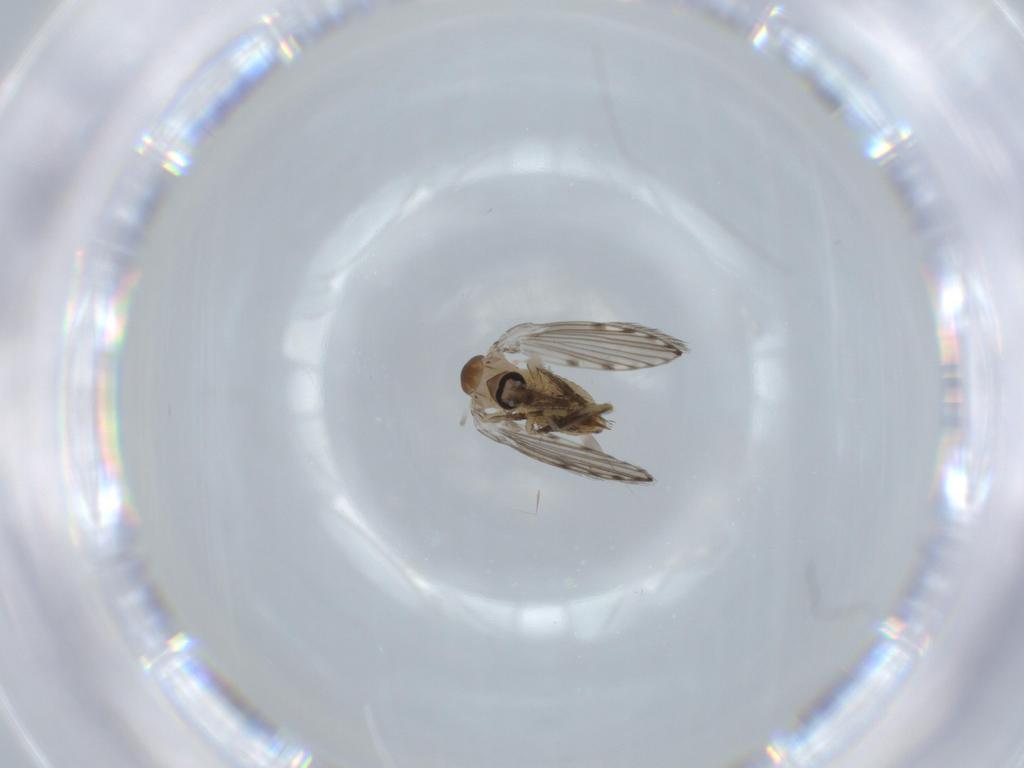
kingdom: Animalia
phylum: Arthropoda
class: Insecta
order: Diptera
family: Psychodidae
